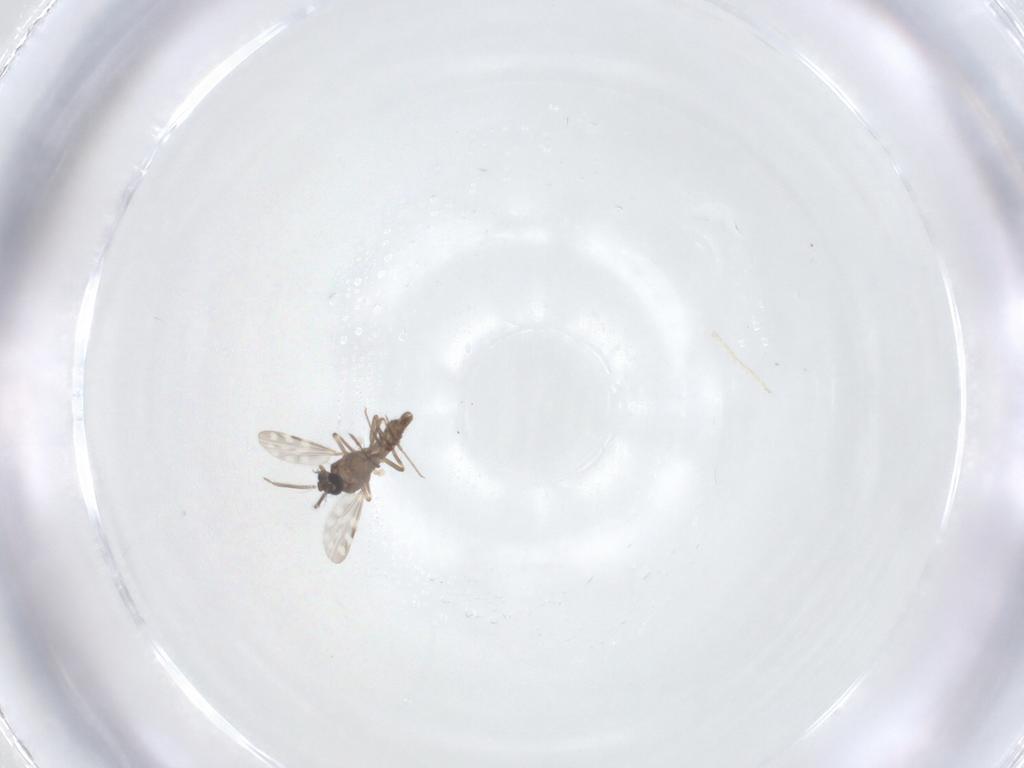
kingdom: Animalia
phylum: Arthropoda
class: Insecta
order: Diptera
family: Chironomidae
